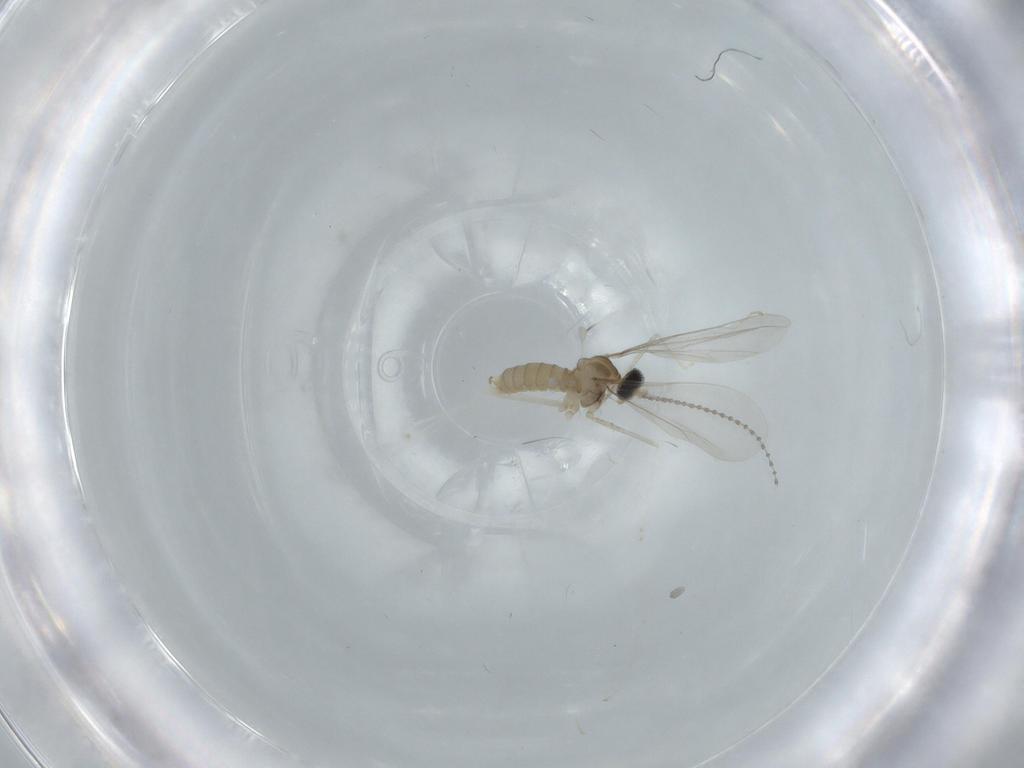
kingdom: Animalia
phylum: Arthropoda
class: Insecta
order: Diptera
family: Cecidomyiidae
